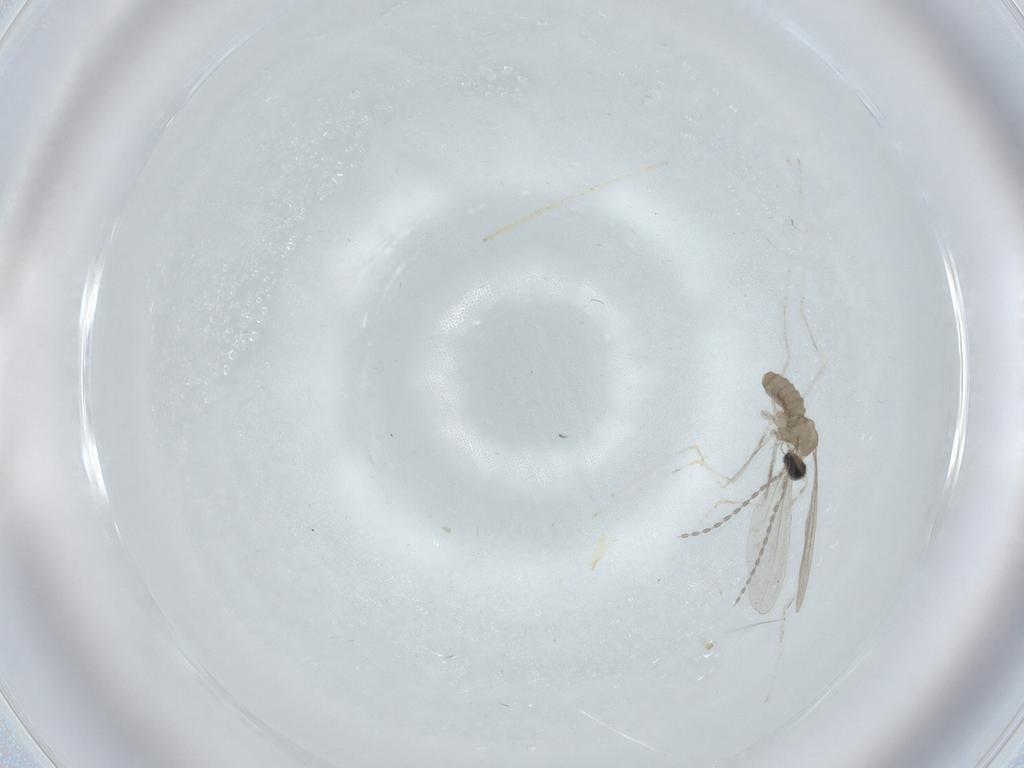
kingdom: Animalia
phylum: Arthropoda
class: Insecta
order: Diptera
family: Cecidomyiidae
